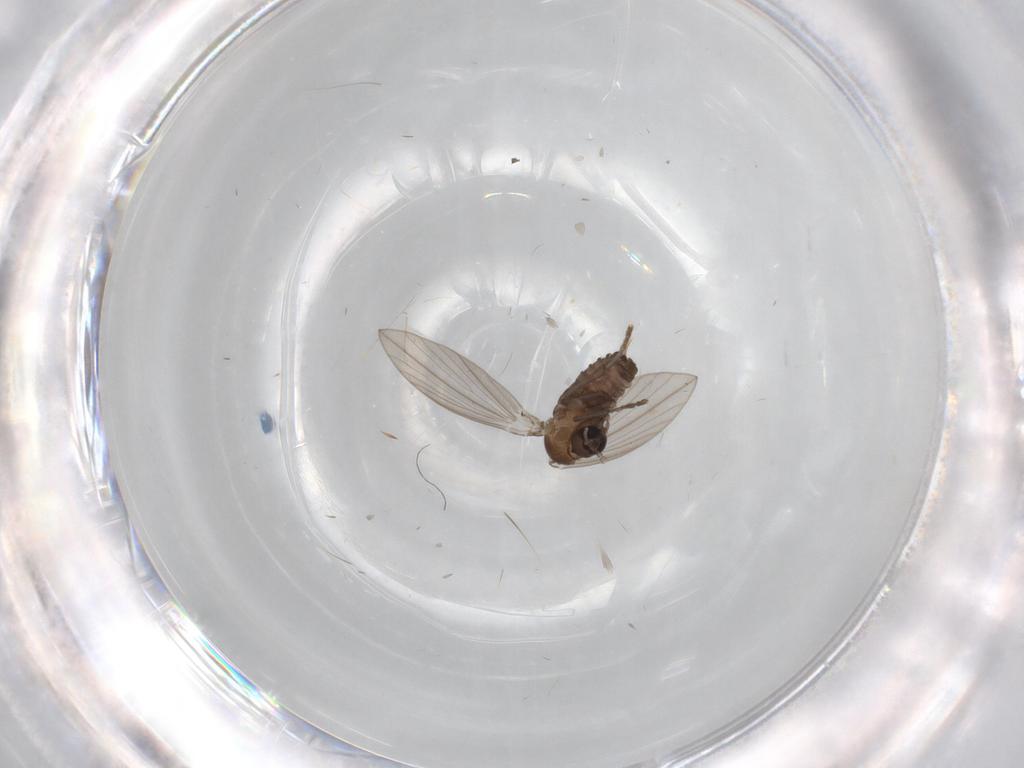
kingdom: Animalia
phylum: Arthropoda
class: Insecta
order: Diptera
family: Psychodidae
